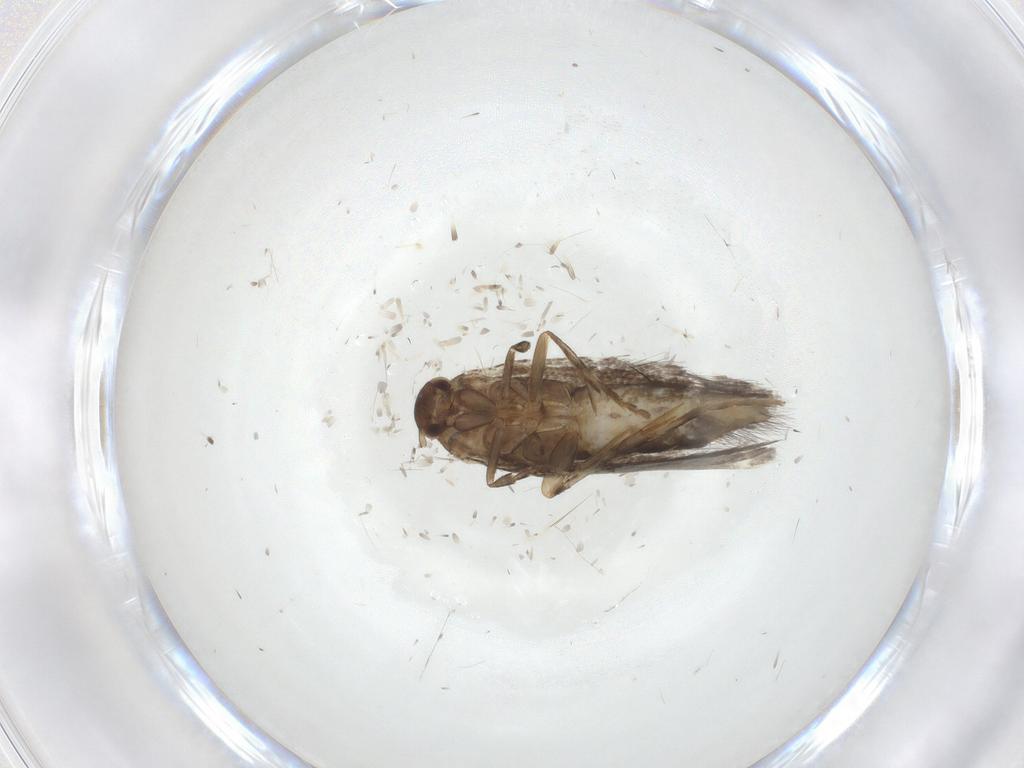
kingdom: Animalia
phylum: Arthropoda
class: Insecta
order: Lepidoptera
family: Elachistidae
